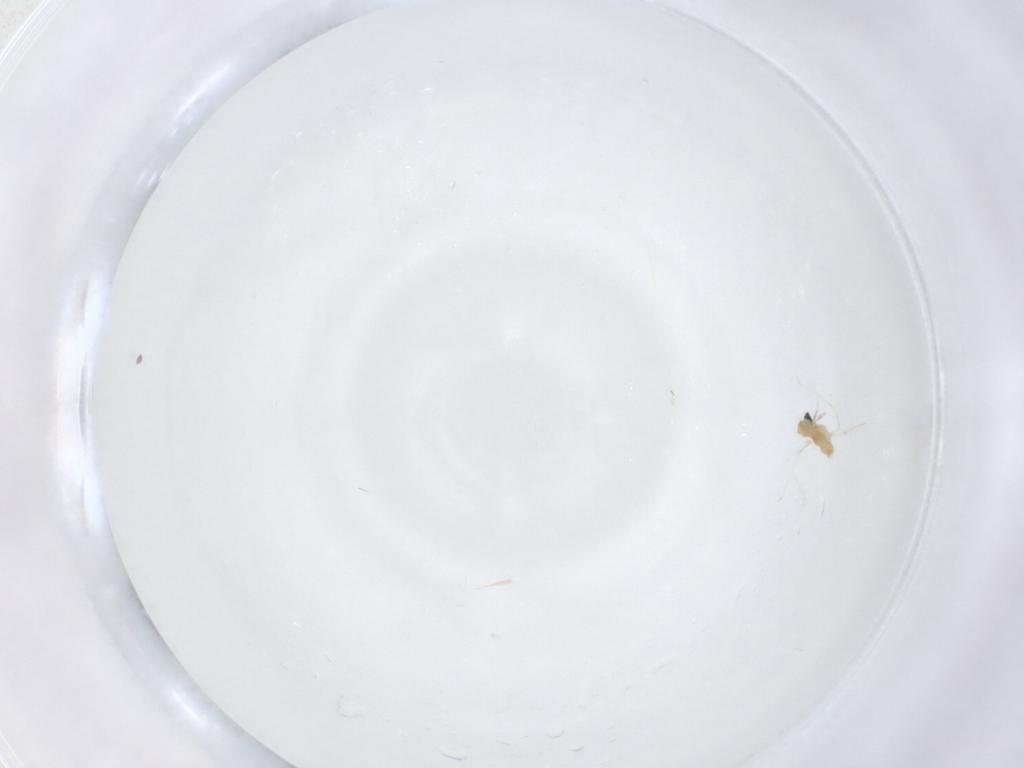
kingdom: Animalia
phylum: Arthropoda
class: Insecta
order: Diptera
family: Cecidomyiidae
